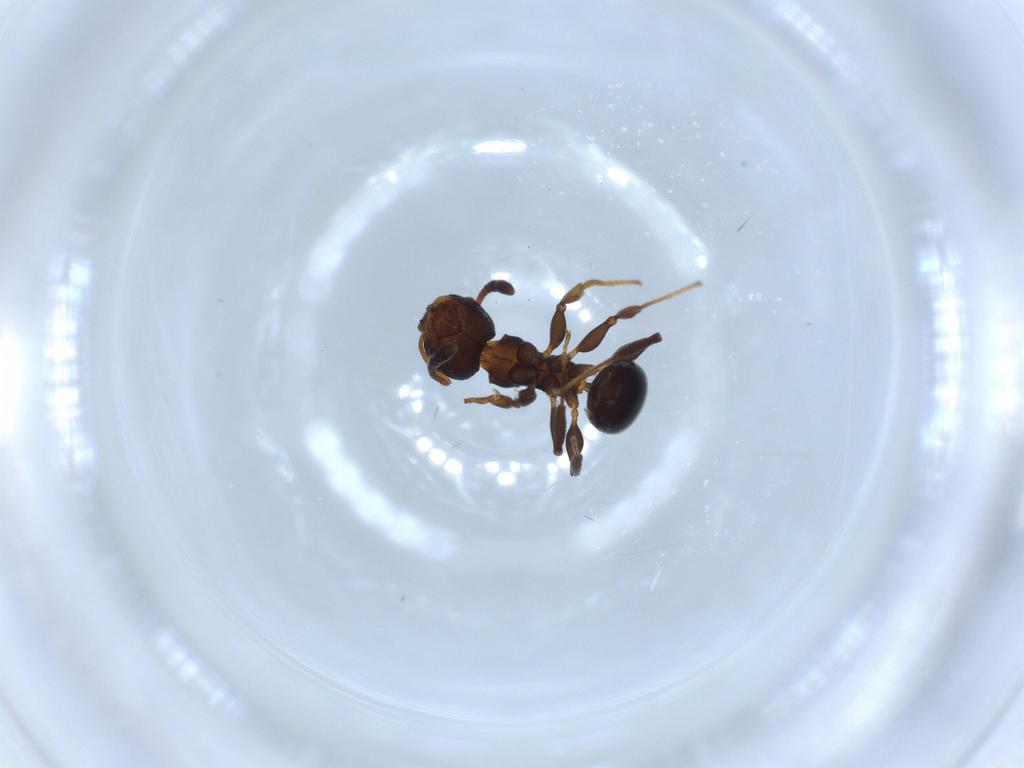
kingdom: Animalia
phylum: Arthropoda
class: Insecta
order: Hymenoptera
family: Formicidae
